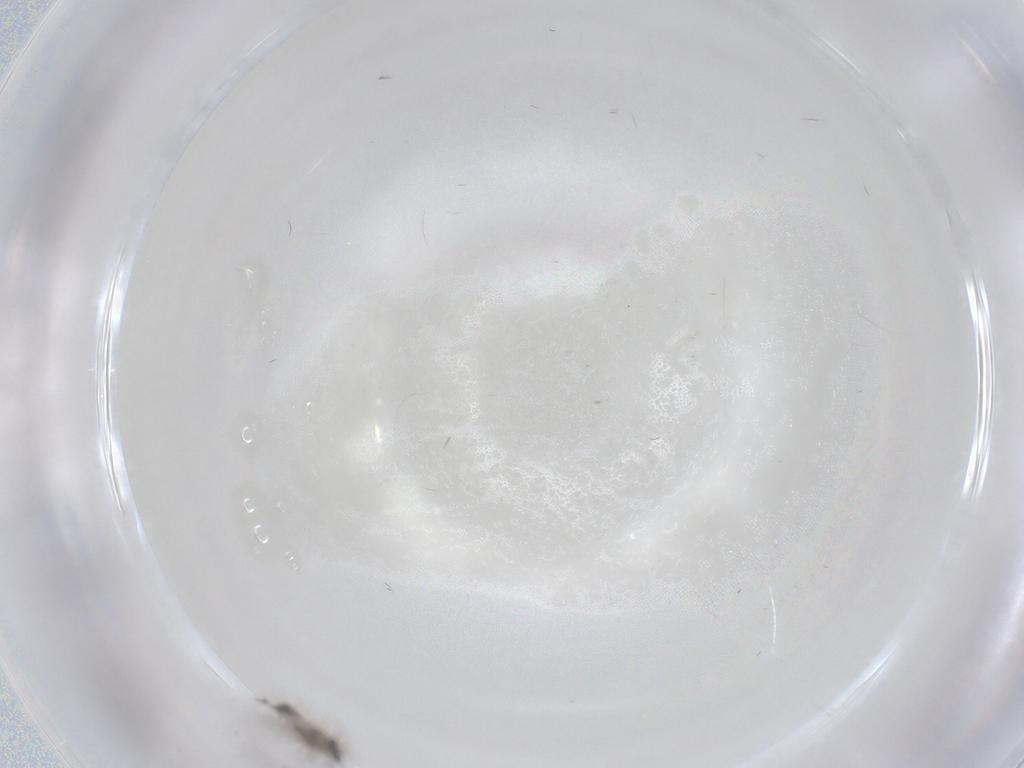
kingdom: Animalia
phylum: Arthropoda
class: Insecta
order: Diptera
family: Chironomidae
